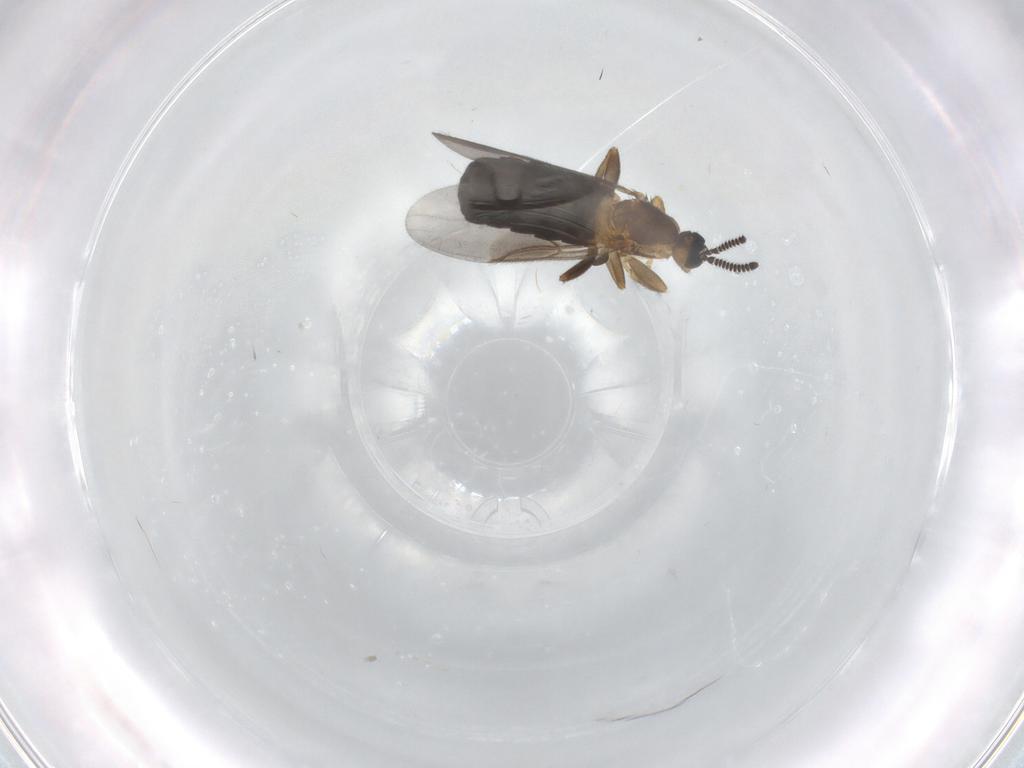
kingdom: Animalia
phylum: Arthropoda
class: Insecta
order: Diptera
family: Scatopsidae
